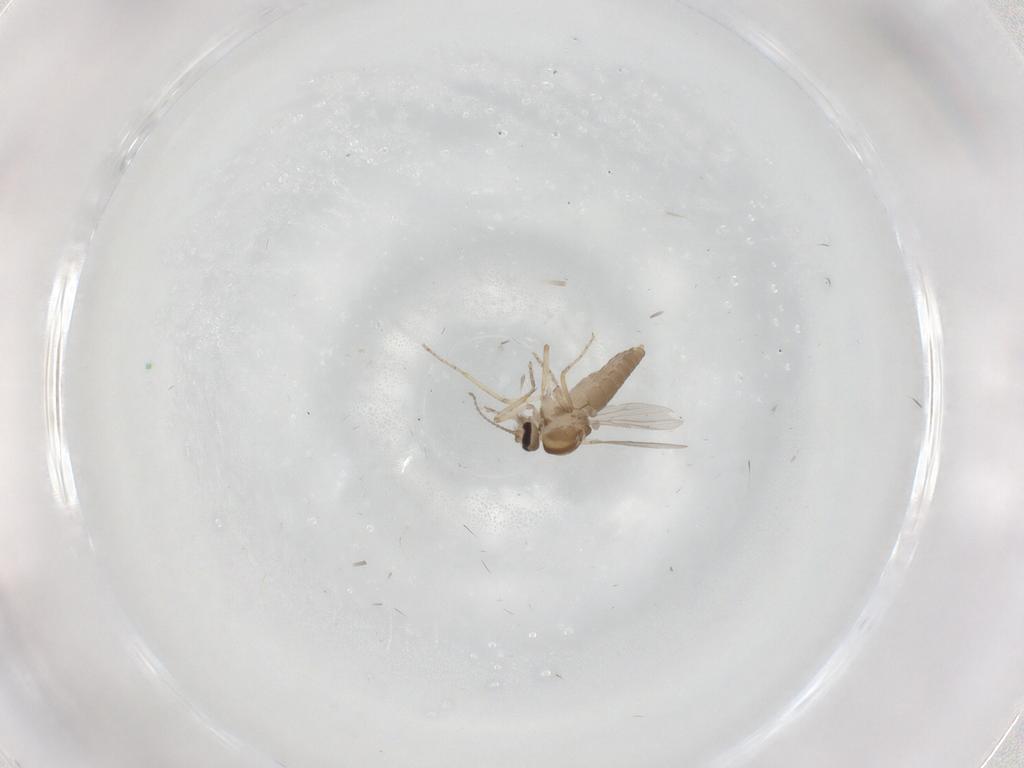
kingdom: Animalia
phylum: Arthropoda
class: Insecta
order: Diptera
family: Ceratopogonidae
